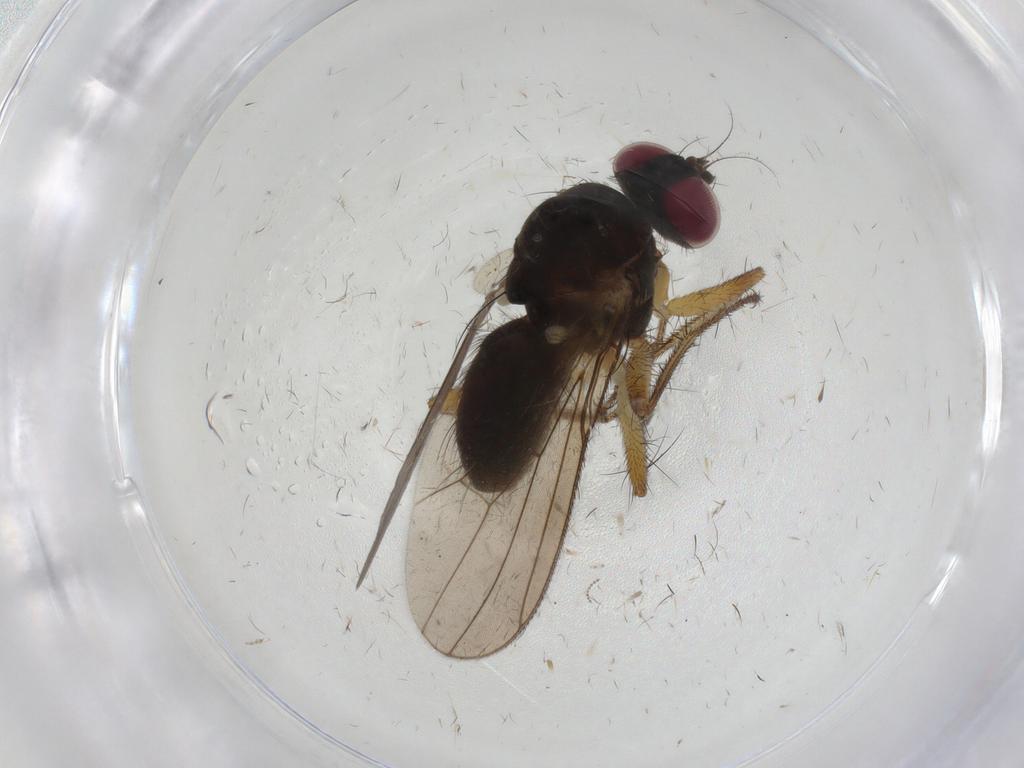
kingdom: Animalia
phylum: Arthropoda
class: Insecta
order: Diptera
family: Anthomyiidae
